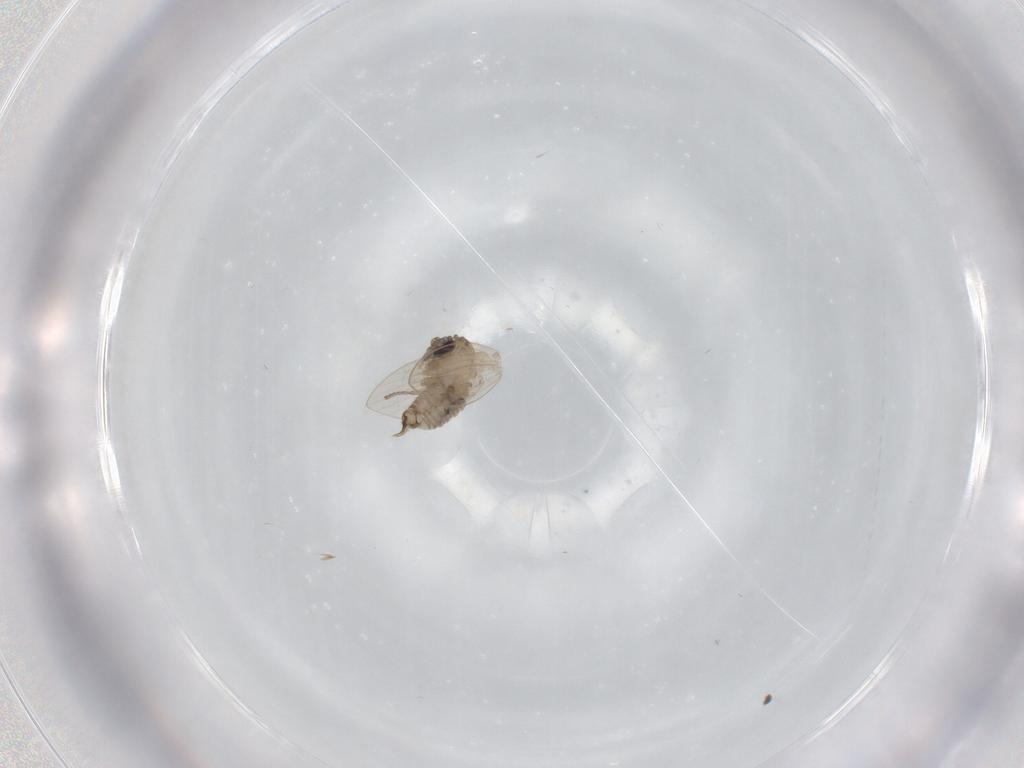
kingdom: Animalia
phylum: Arthropoda
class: Insecta
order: Diptera
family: Psychodidae
